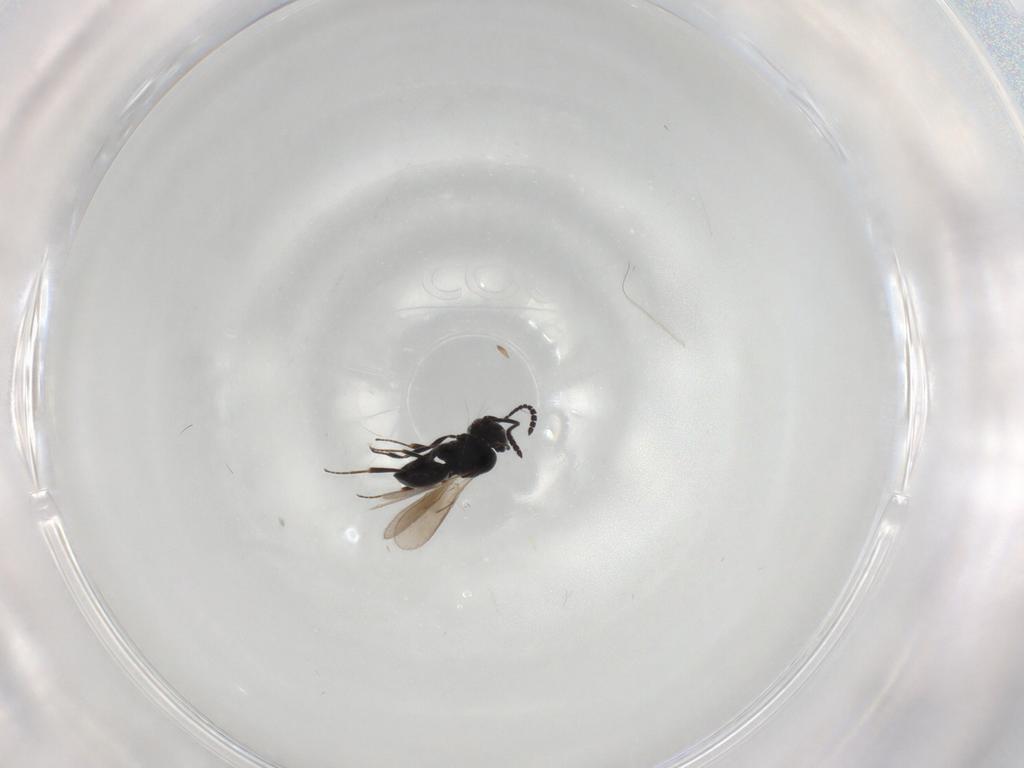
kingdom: Animalia
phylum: Arthropoda
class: Insecta
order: Hymenoptera
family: Scelionidae
